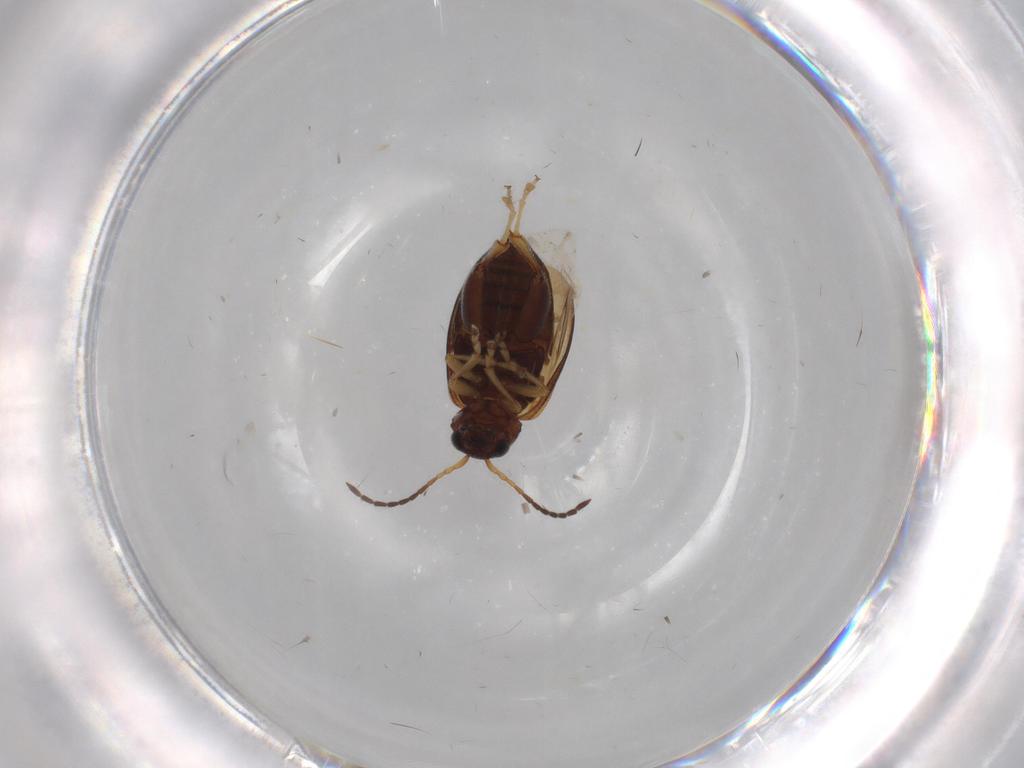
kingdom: Animalia
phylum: Arthropoda
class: Insecta
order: Coleoptera
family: Chrysomelidae
